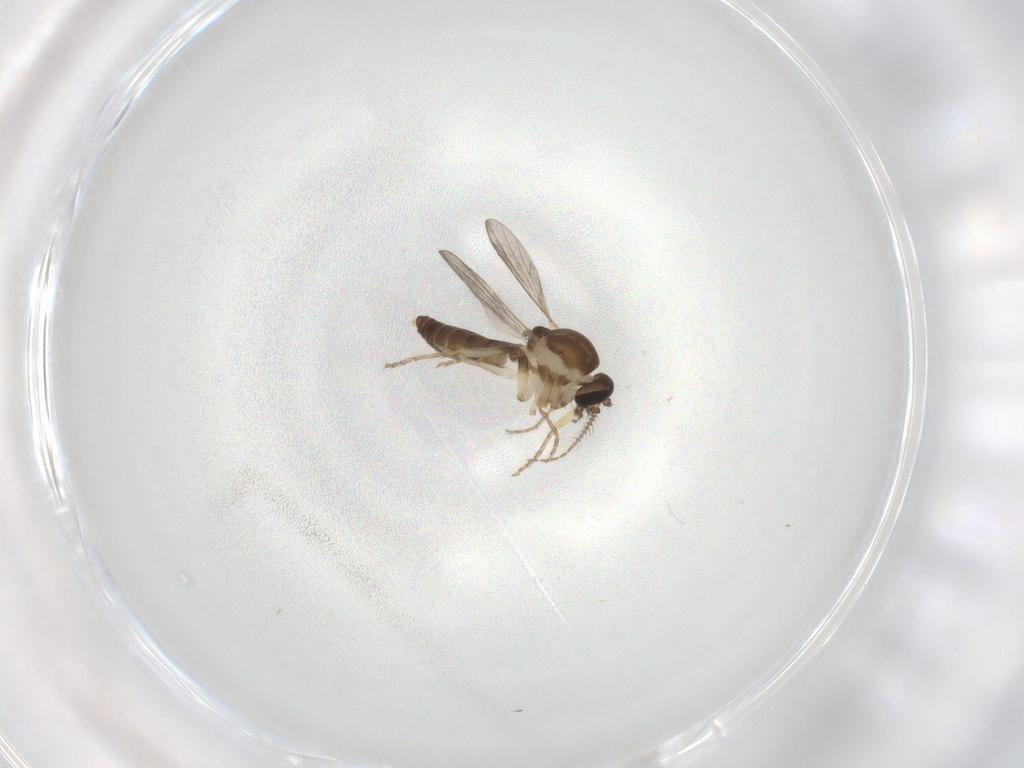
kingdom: Animalia
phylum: Arthropoda
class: Insecta
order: Diptera
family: Ceratopogonidae
